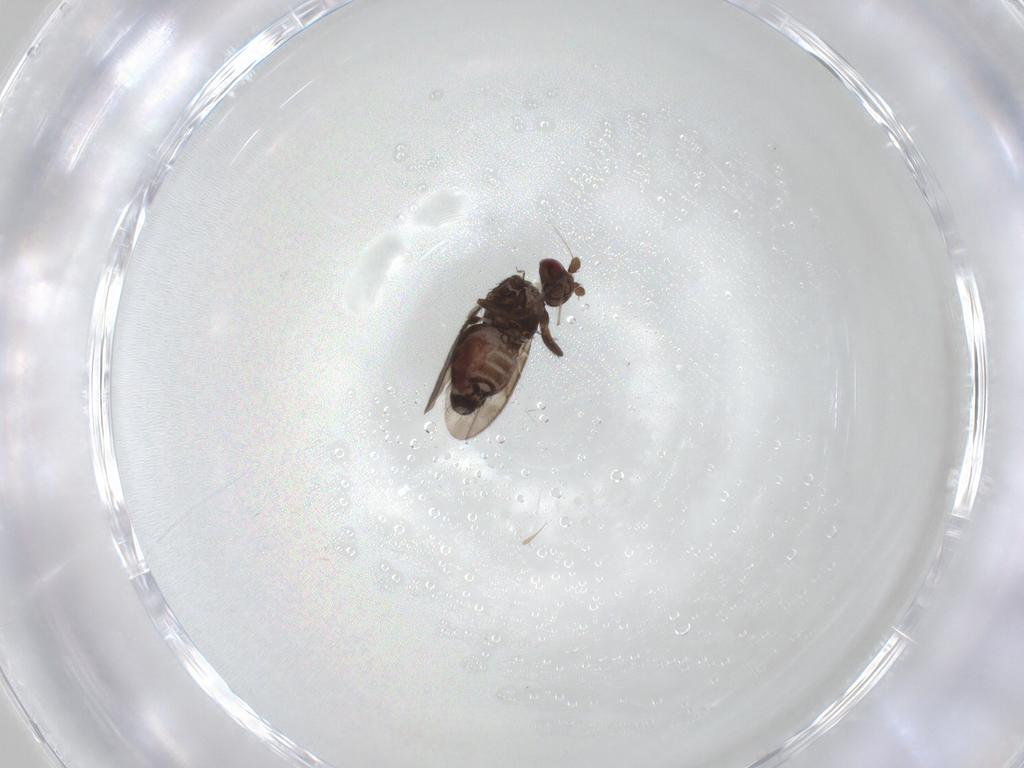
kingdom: Animalia
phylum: Arthropoda
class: Insecta
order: Diptera
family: Sphaeroceridae
